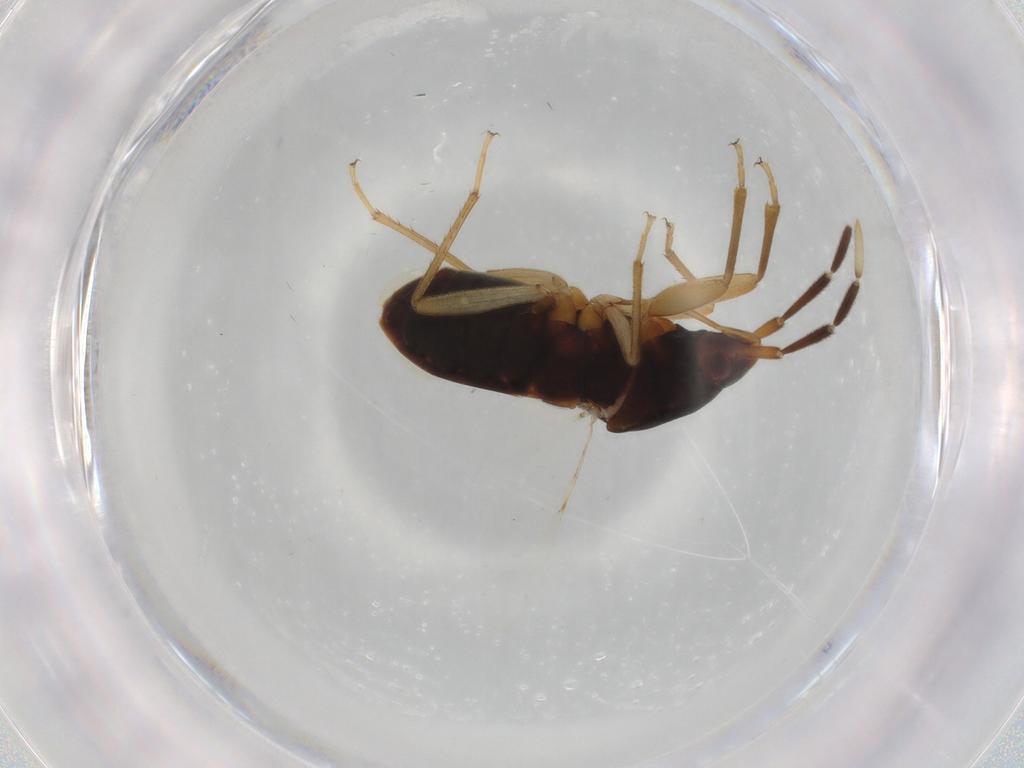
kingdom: Animalia
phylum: Arthropoda
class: Insecta
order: Hemiptera
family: Rhyparochromidae
